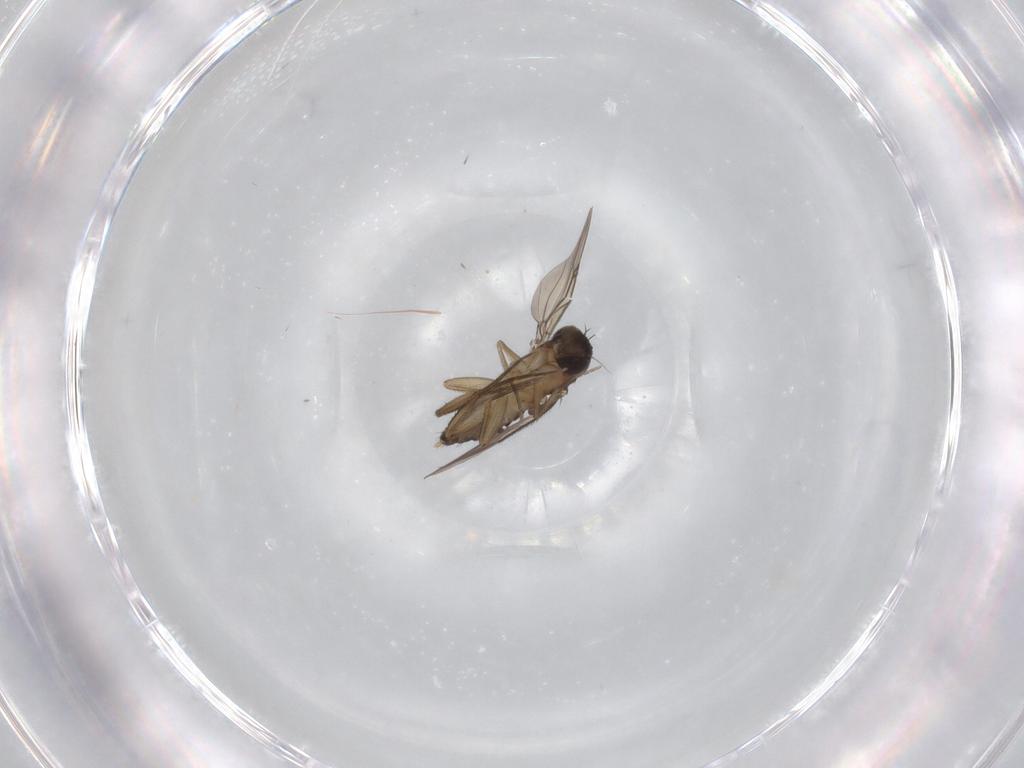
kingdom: Animalia
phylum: Arthropoda
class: Insecta
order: Diptera
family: Phoridae
